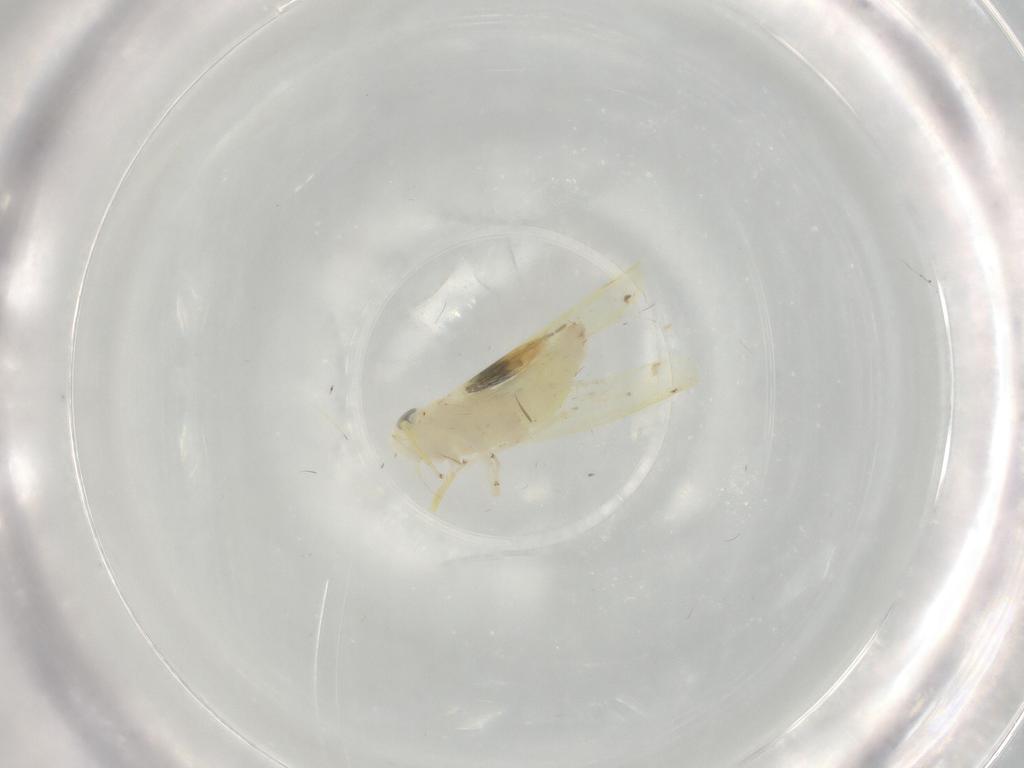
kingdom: Animalia
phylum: Arthropoda
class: Insecta
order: Hemiptera
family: Cicadellidae
